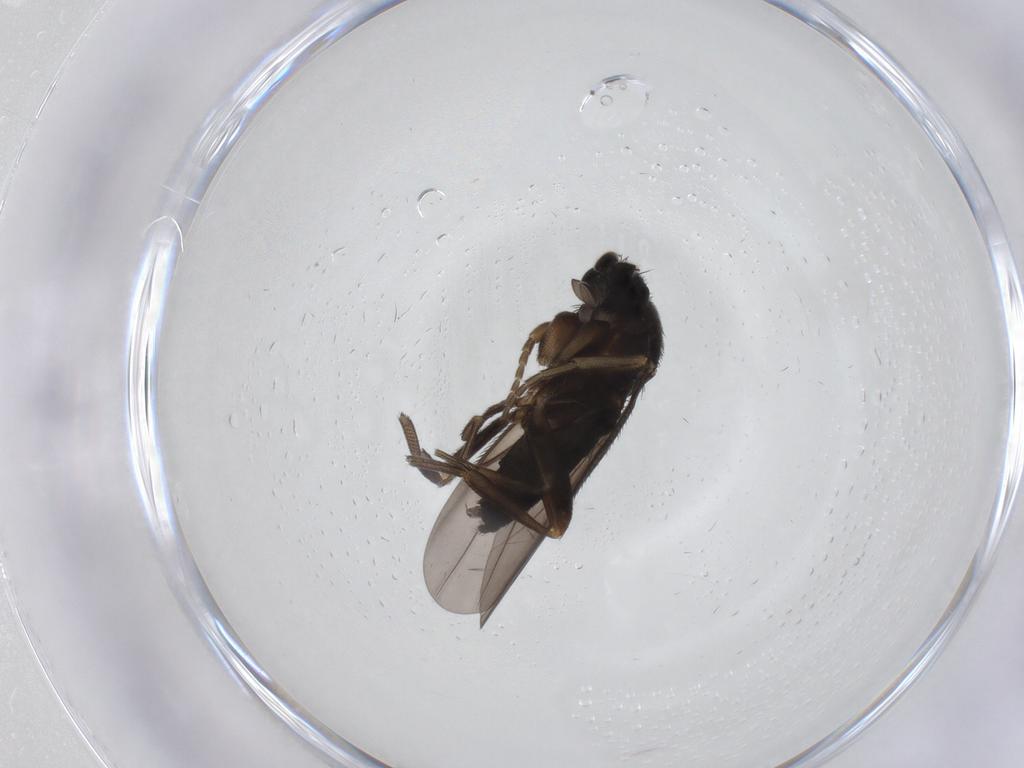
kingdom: Animalia
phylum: Arthropoda
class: Insecta
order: Diptera
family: Phoridae
